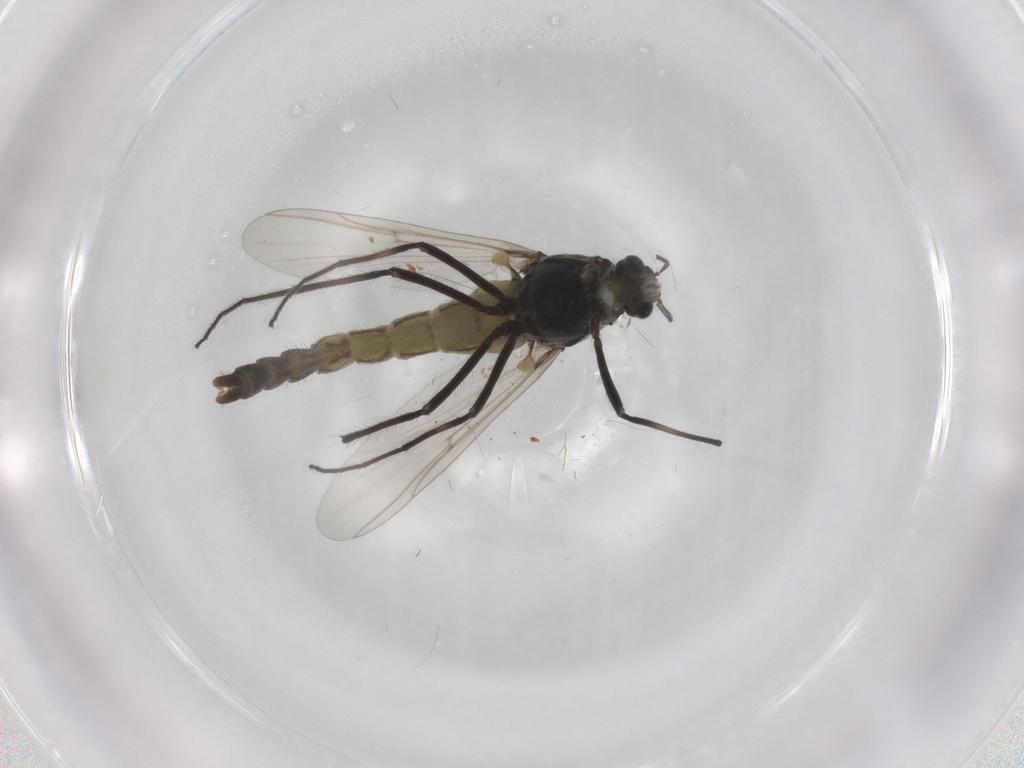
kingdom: Animalia
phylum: Arthropoda
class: Insecta
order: Diptera
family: Chironomidae
